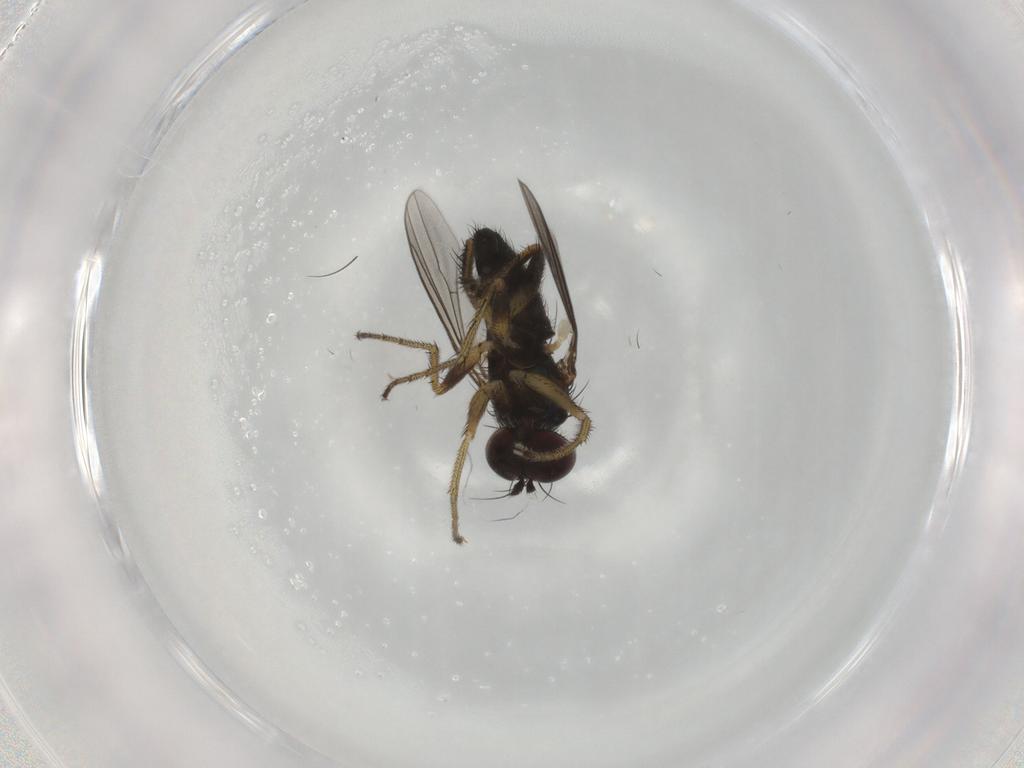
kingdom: Animalia
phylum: Arthropoda
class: Insecta
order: Diptera
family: Dolichopodidae
